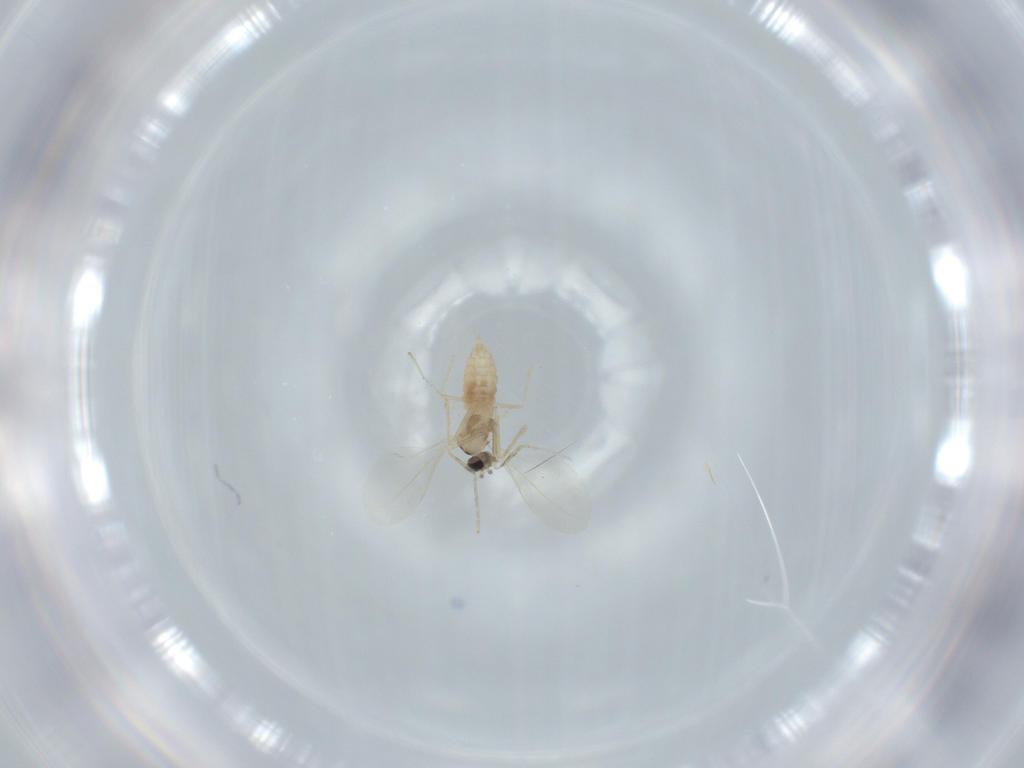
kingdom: Animalia
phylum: Arthropoda
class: Insecta
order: Diptera
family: Cecidomyiidae
